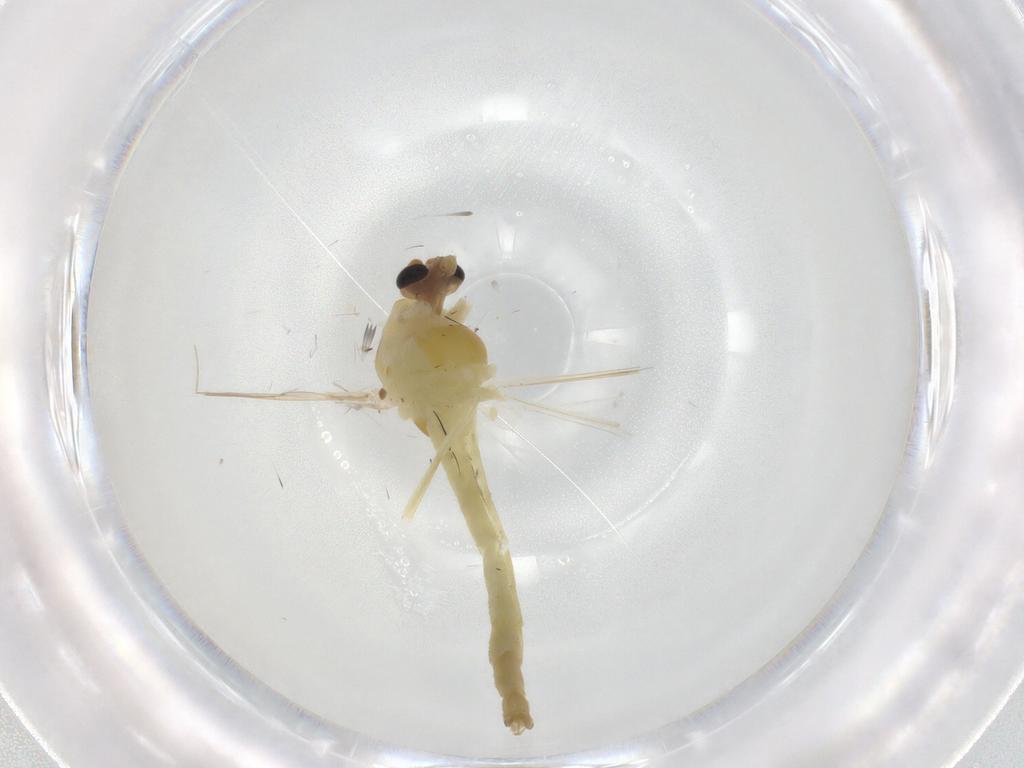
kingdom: Animalia
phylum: Arthropoda
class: Insecta
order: Diptera
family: Chironomidae
